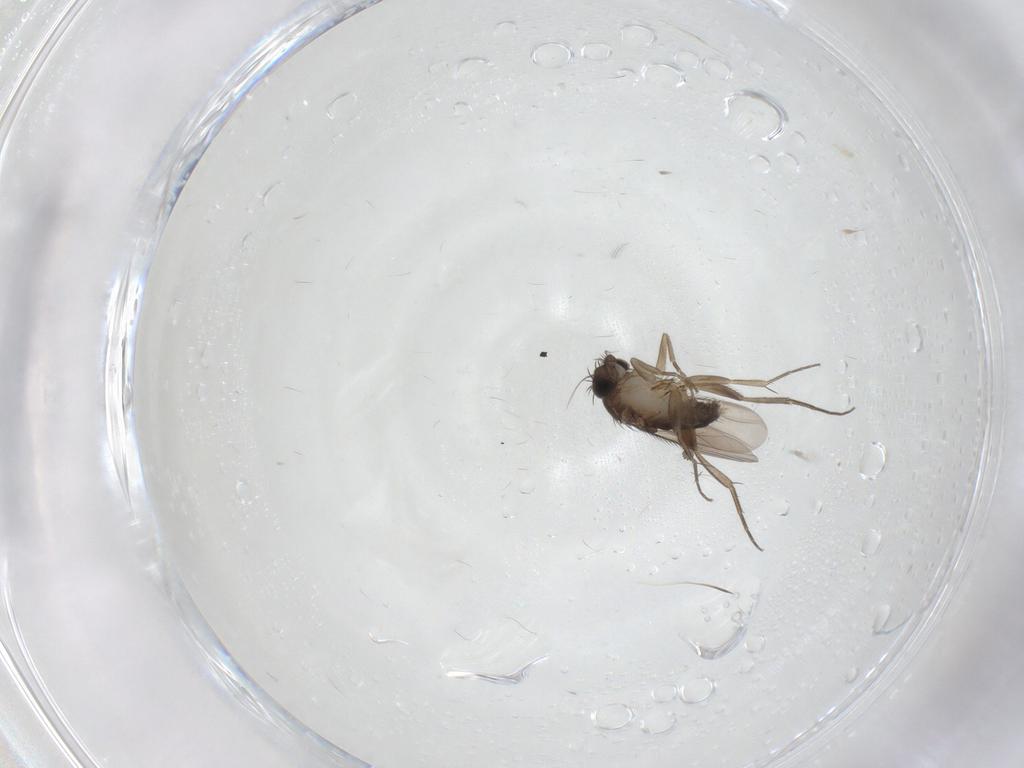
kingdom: Animalia
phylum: Arthropoda
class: Insecta
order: Diptera
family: Phoridae
